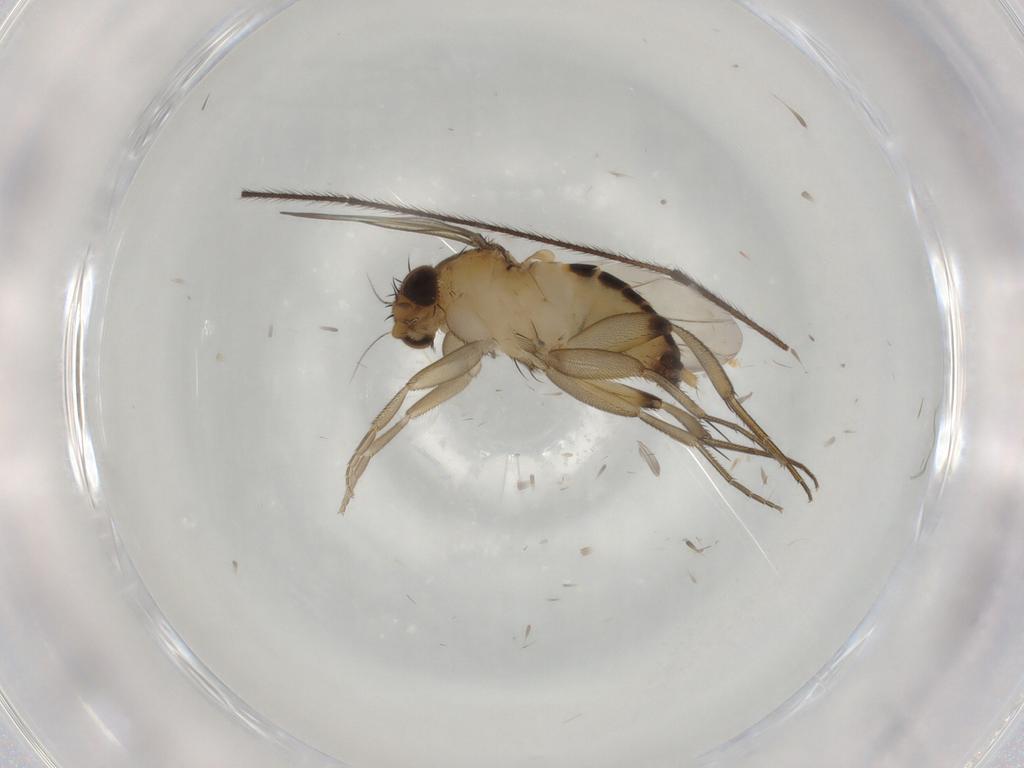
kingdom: Animalia
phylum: Arthropoda
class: Insecta
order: Diptera
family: Phoridae
